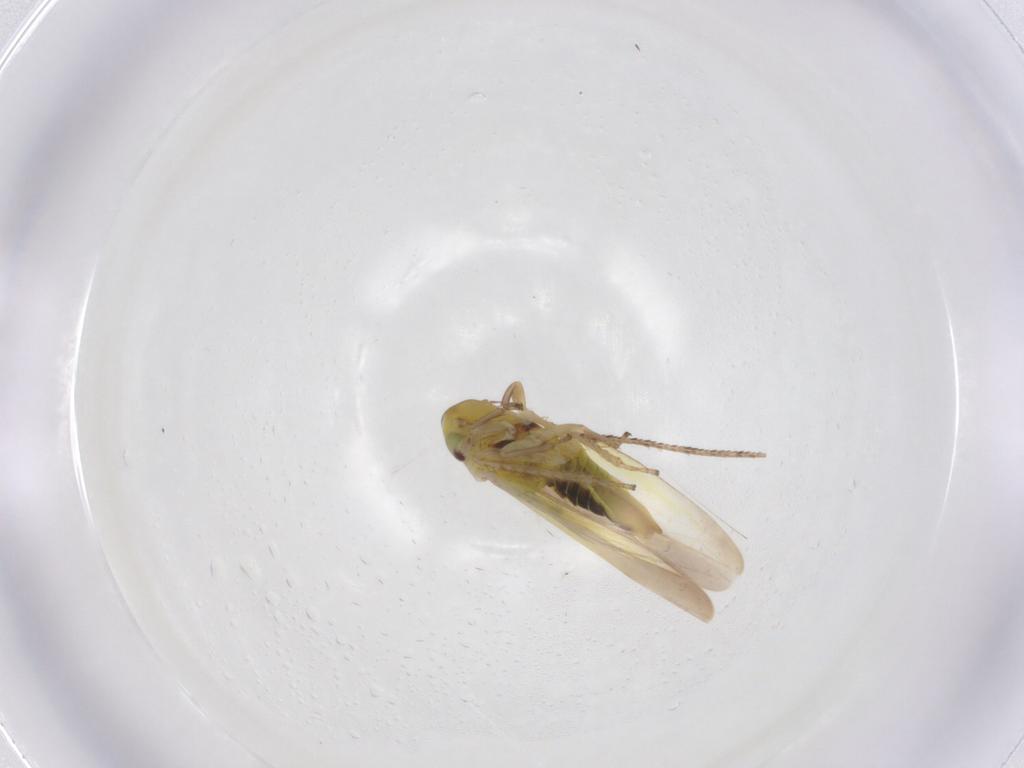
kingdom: Animalia
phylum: Arthropoda
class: Insecta
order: Hemiptera
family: Cicadellidae
